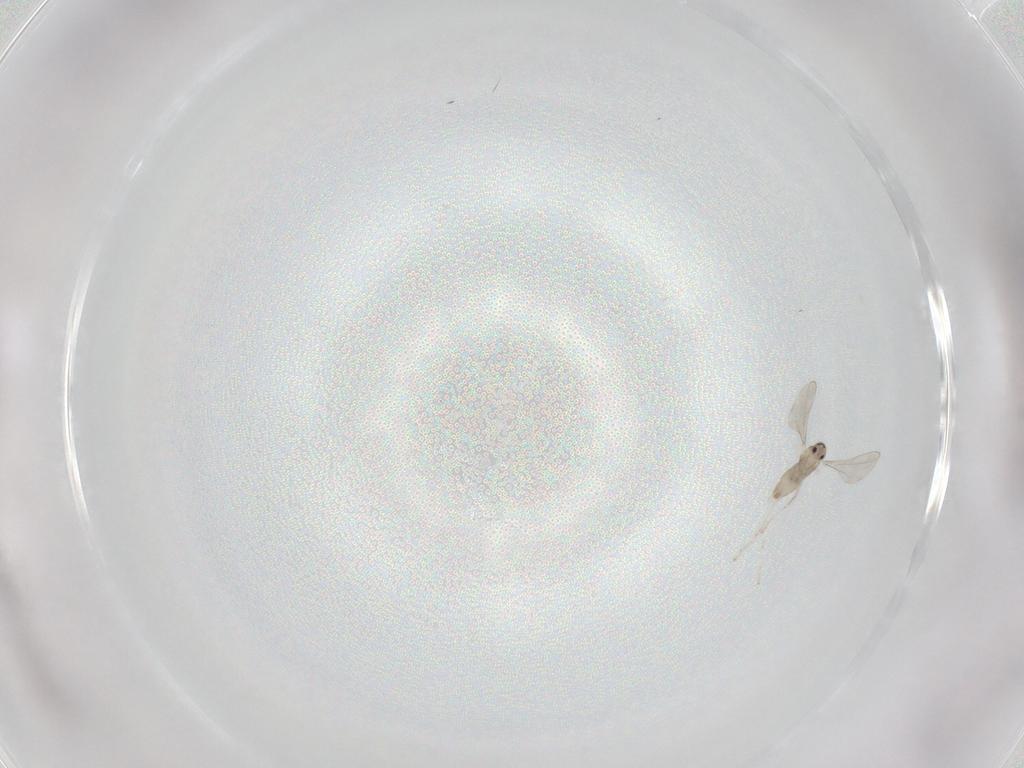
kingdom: Animalia
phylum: Arthropoda
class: Insecta
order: Diptera
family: Cecidomyiidae
